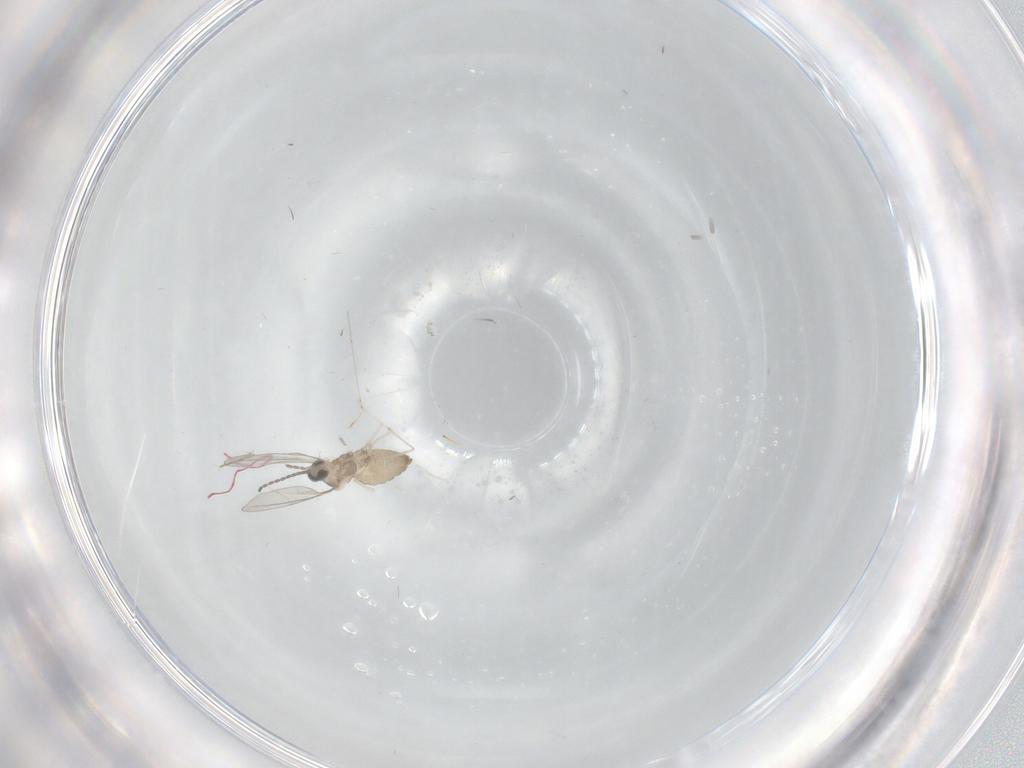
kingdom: Animalia
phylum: Arthropoda
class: Insecta
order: Diptera
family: Cecidomyiidae
